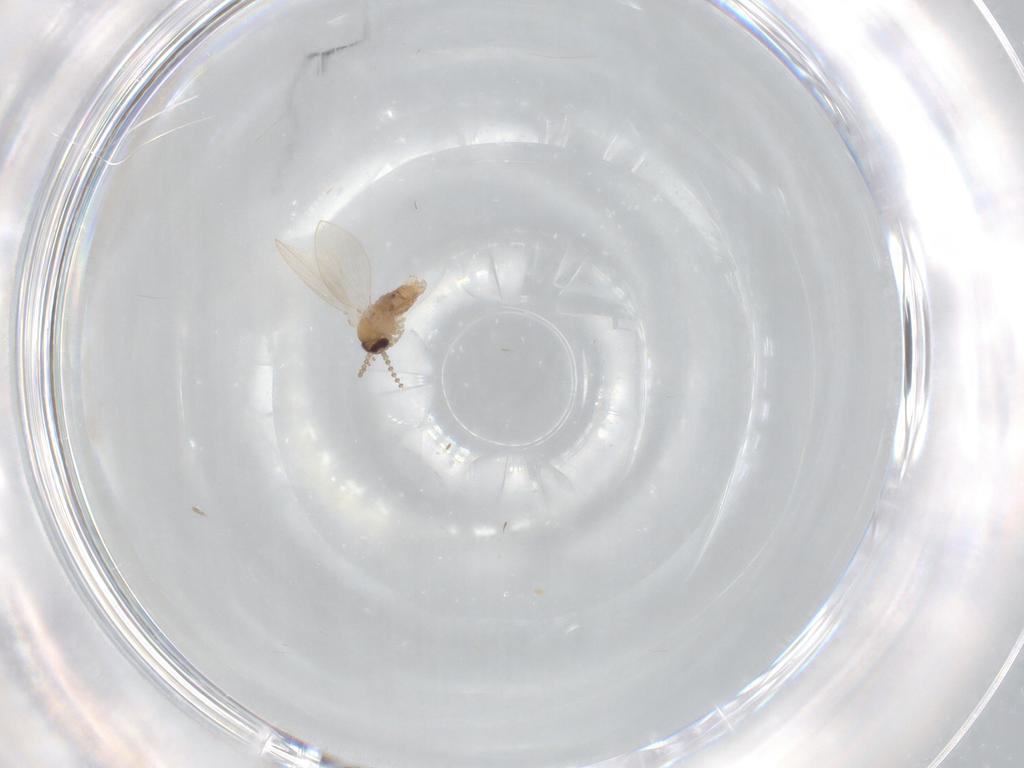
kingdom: Animalia
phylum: Arthropoda
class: Insecta
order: Diptera
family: Psychodidae
